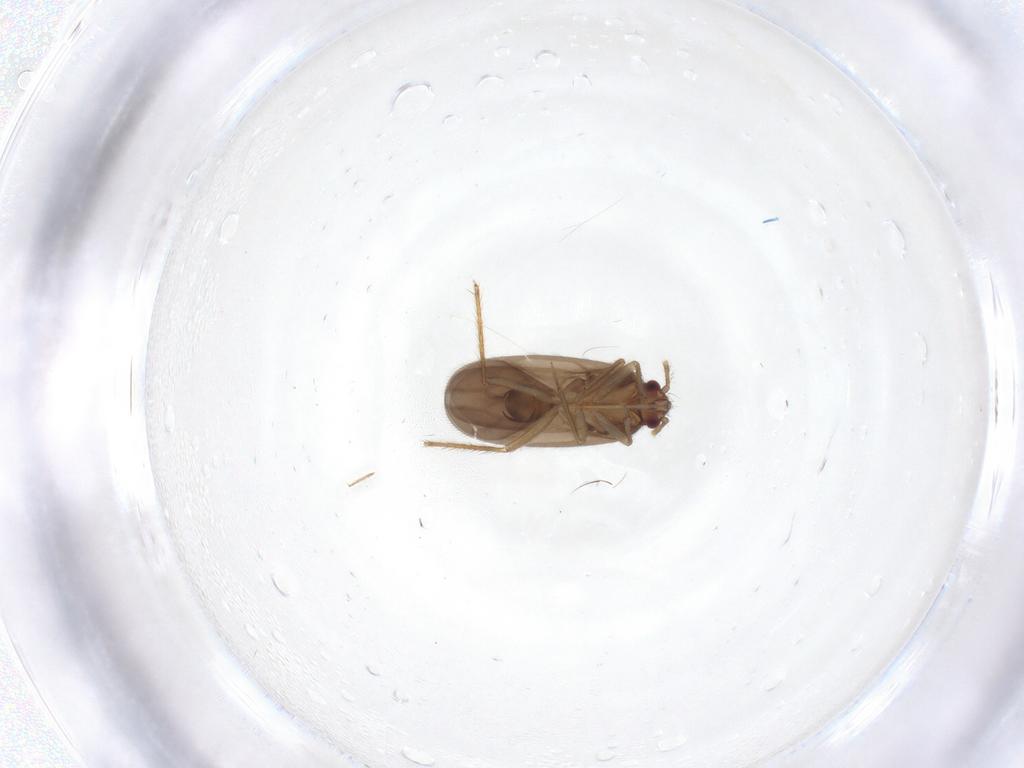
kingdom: Animalia
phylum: Arthropoda
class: Insecta
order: Hemiptera
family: Ceratocombidae
